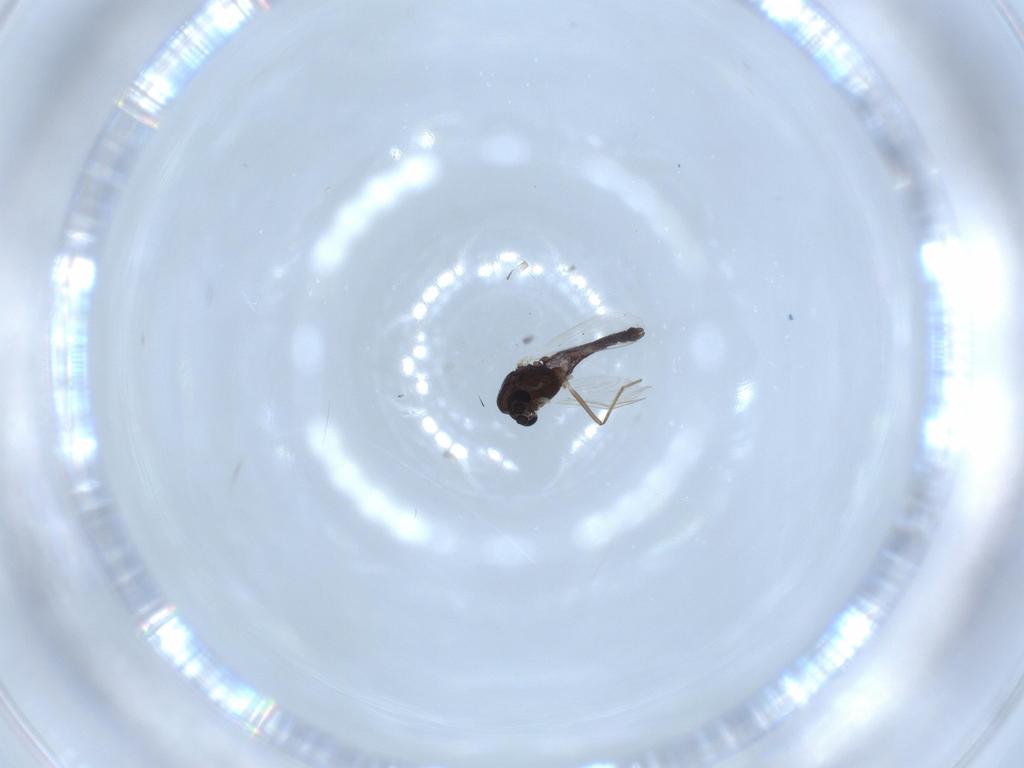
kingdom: Animalia
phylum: Arthropoda
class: Insecta
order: Diptera
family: Chironomidae
